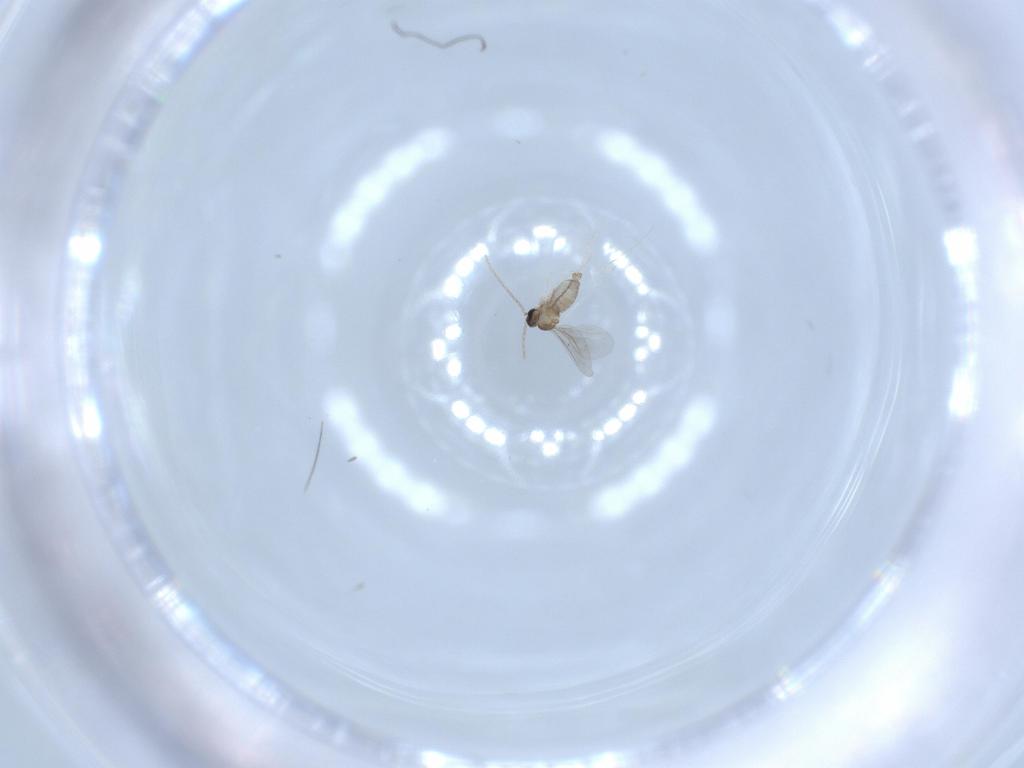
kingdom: Animalia
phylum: Arthropoda
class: Insecta
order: Diptera
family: Cecidomyiidae
